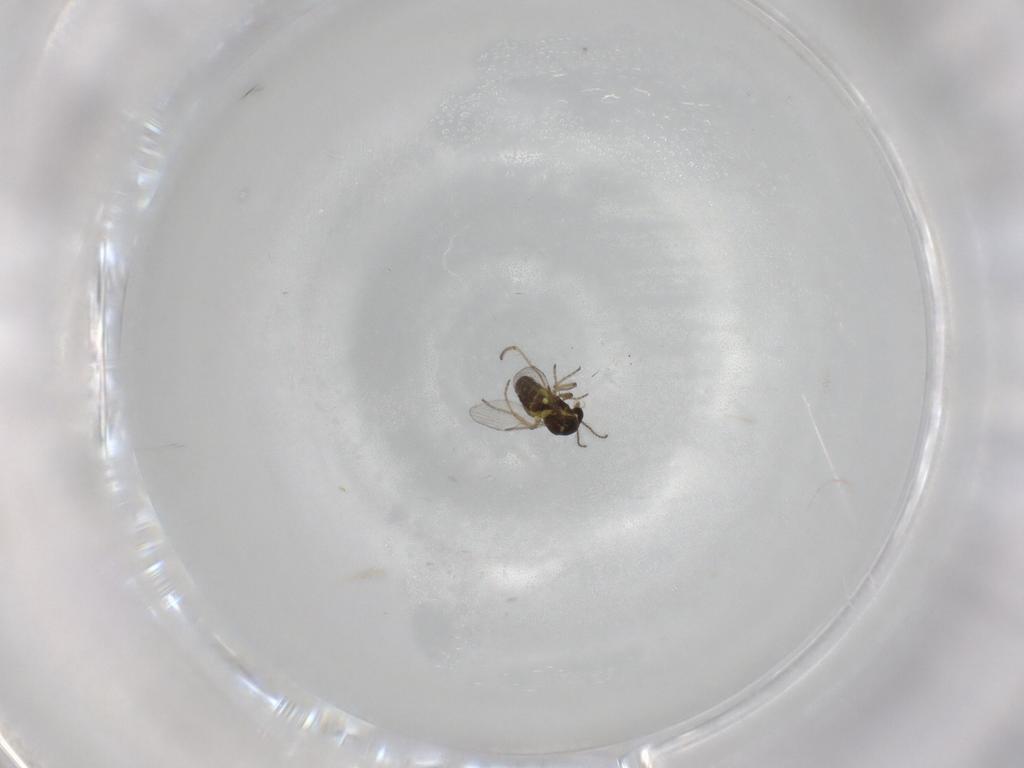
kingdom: Animalia
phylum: Arthropoda
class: Insecta
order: Diptera
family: Ceratopogonidae
